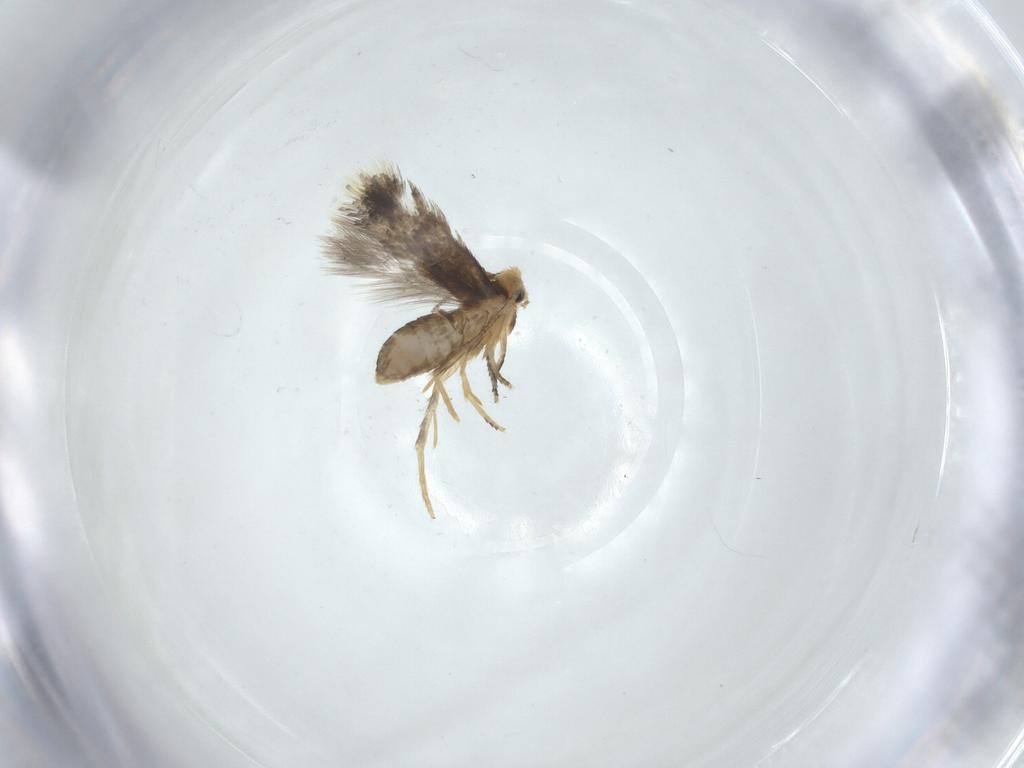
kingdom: Animalia
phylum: Arthropoda
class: Insecta
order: Lepidoptera
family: Nepticulidae
